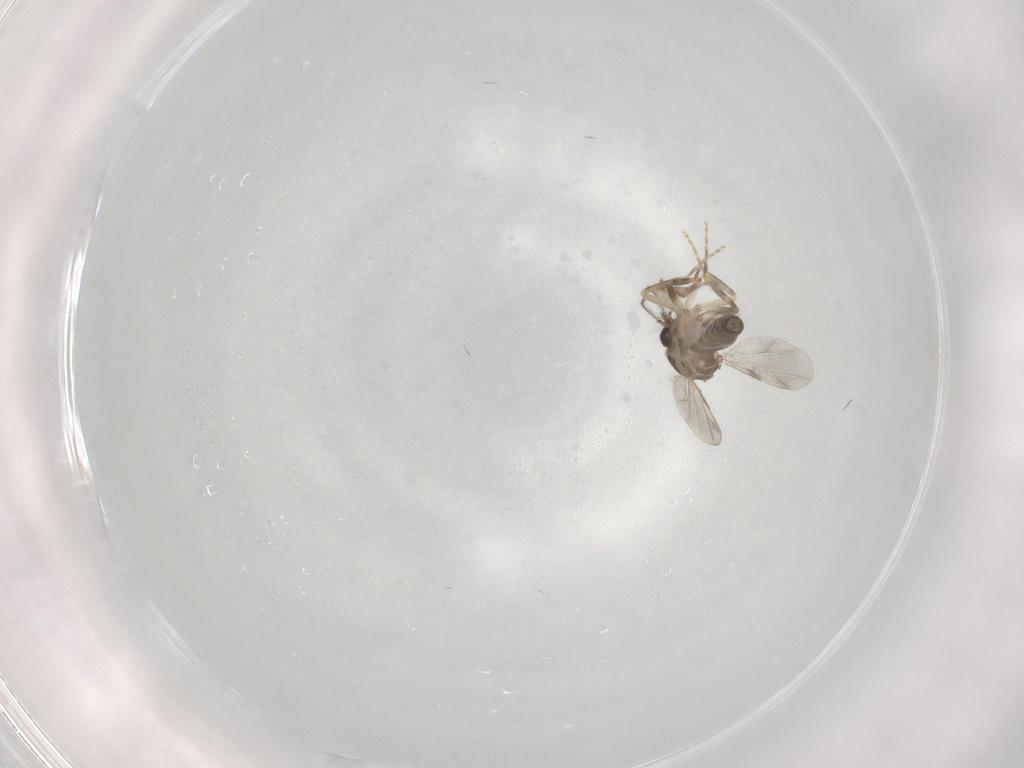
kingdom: Animalia
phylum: Arthropoda
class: Insecta
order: Diptera
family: Ceratopogonidae
